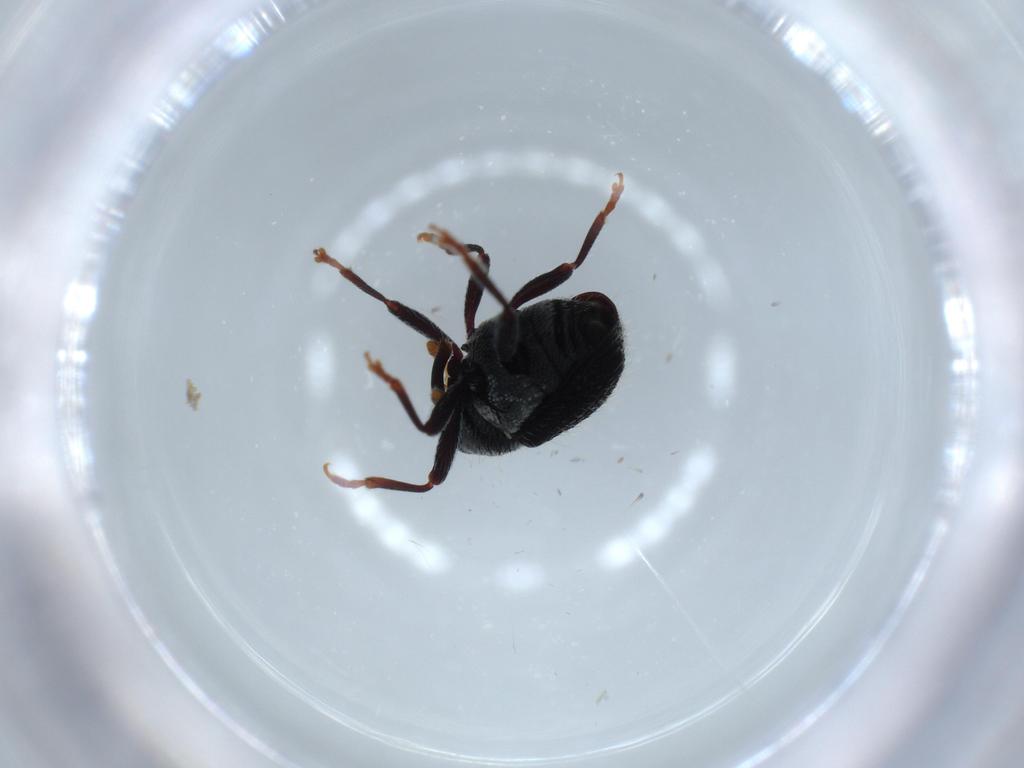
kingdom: Animalia
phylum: Arthropoda
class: Insecta
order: Coleoptera
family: Curculionidae
